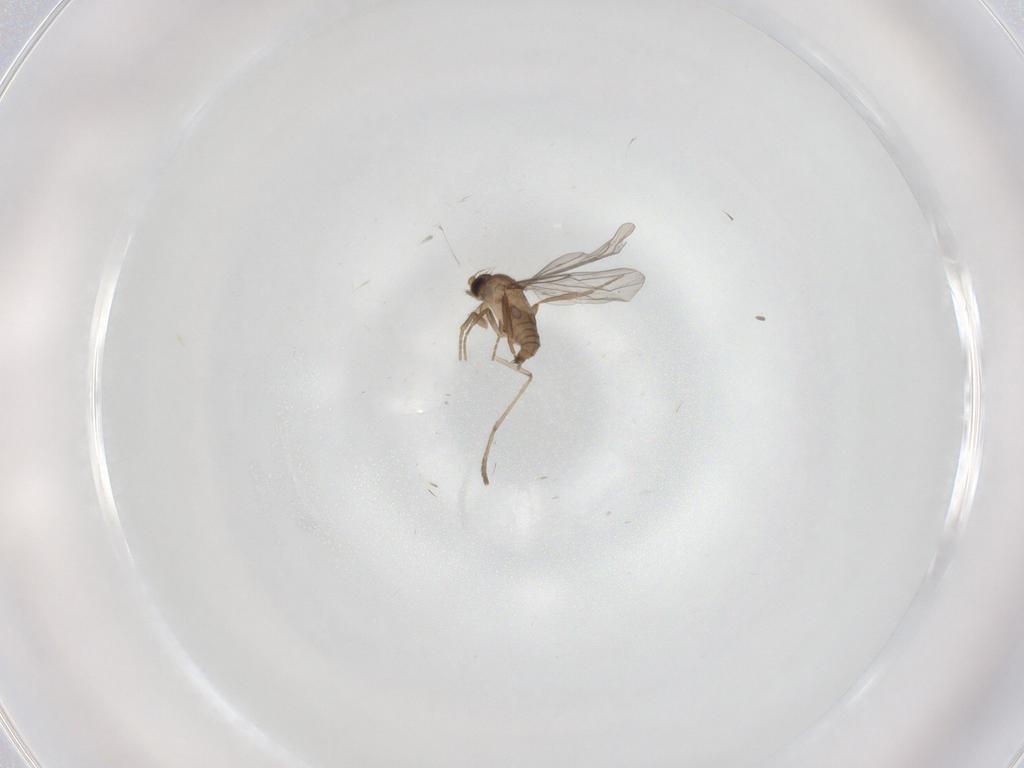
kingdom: Animalia
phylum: Arthropoda
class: Insecta
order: Diptera
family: Psychodidae
